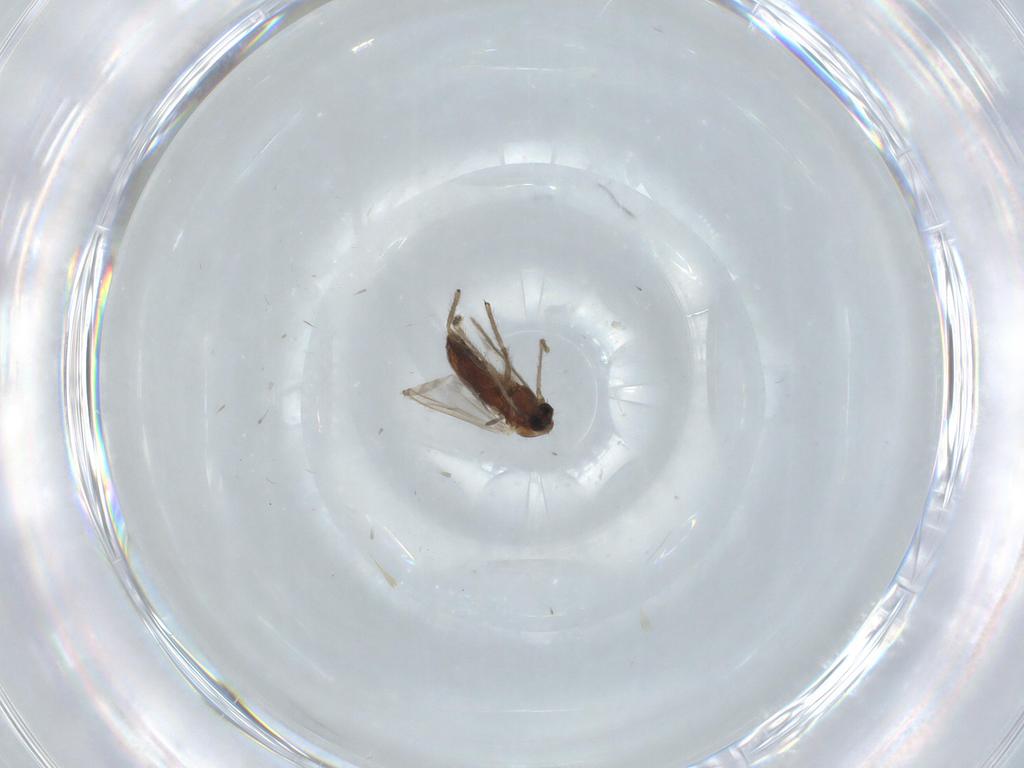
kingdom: Animalia
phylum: Arthropoda
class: Insecta
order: Diptera
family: Chironomidae
